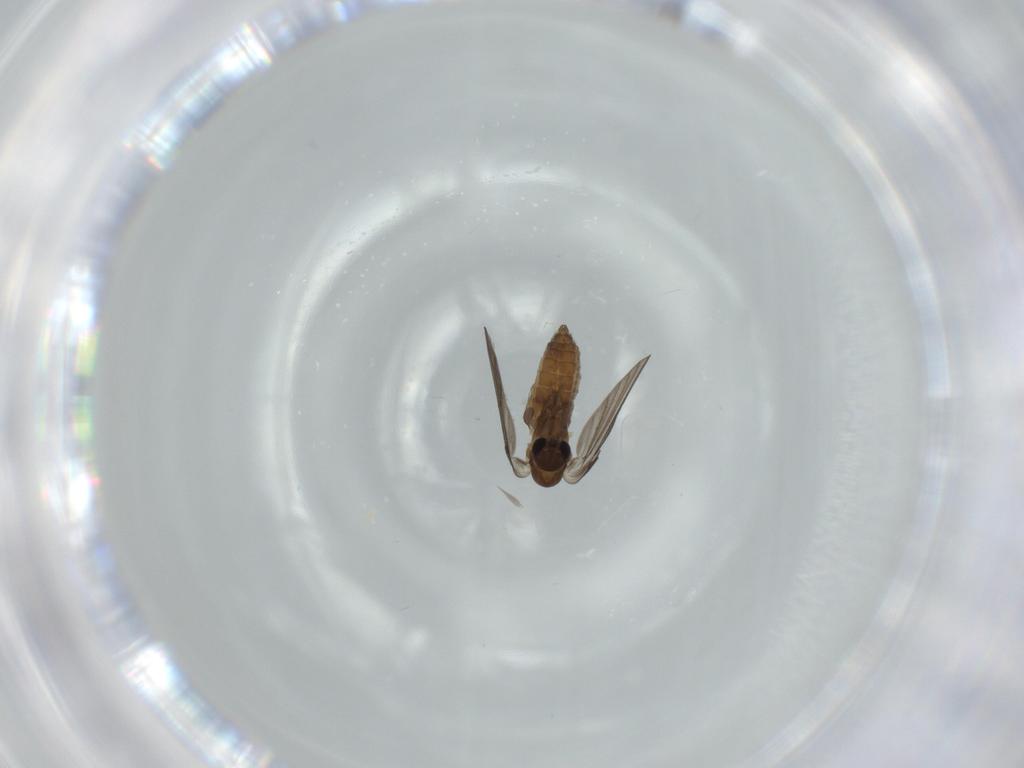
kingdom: Animalia
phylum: Arthropoda
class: Insecta
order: Diptera
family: Psychodidae
